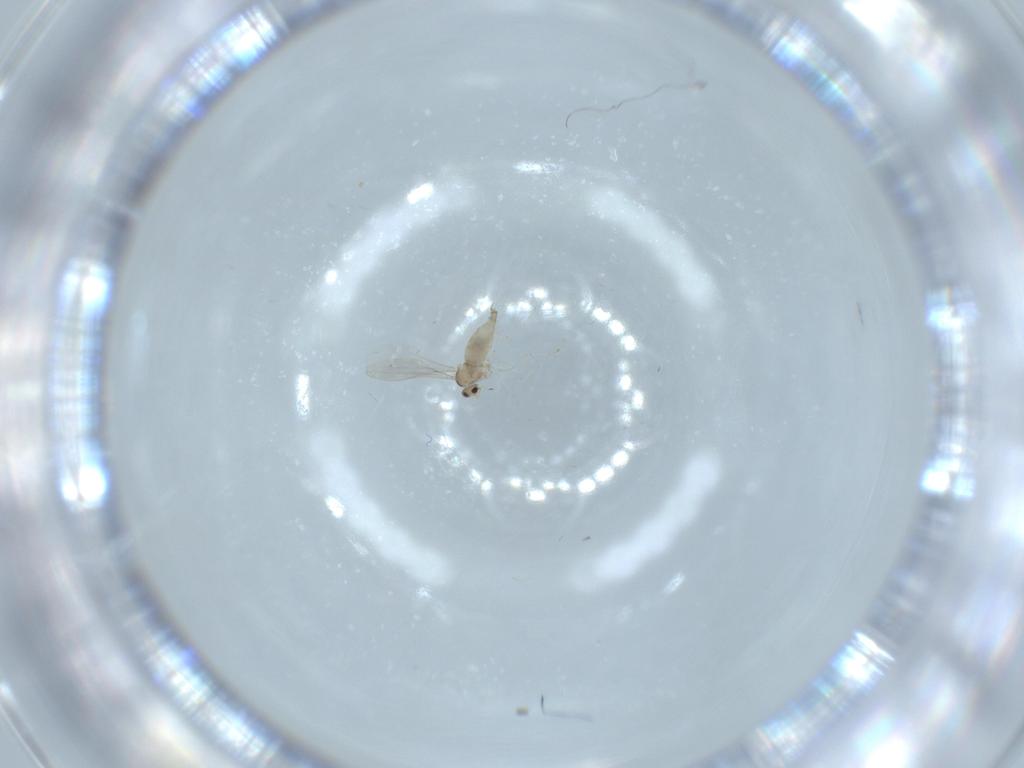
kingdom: Animalia
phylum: Arthropoda
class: Insecta
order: Diptera
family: Cecidomyiidae
